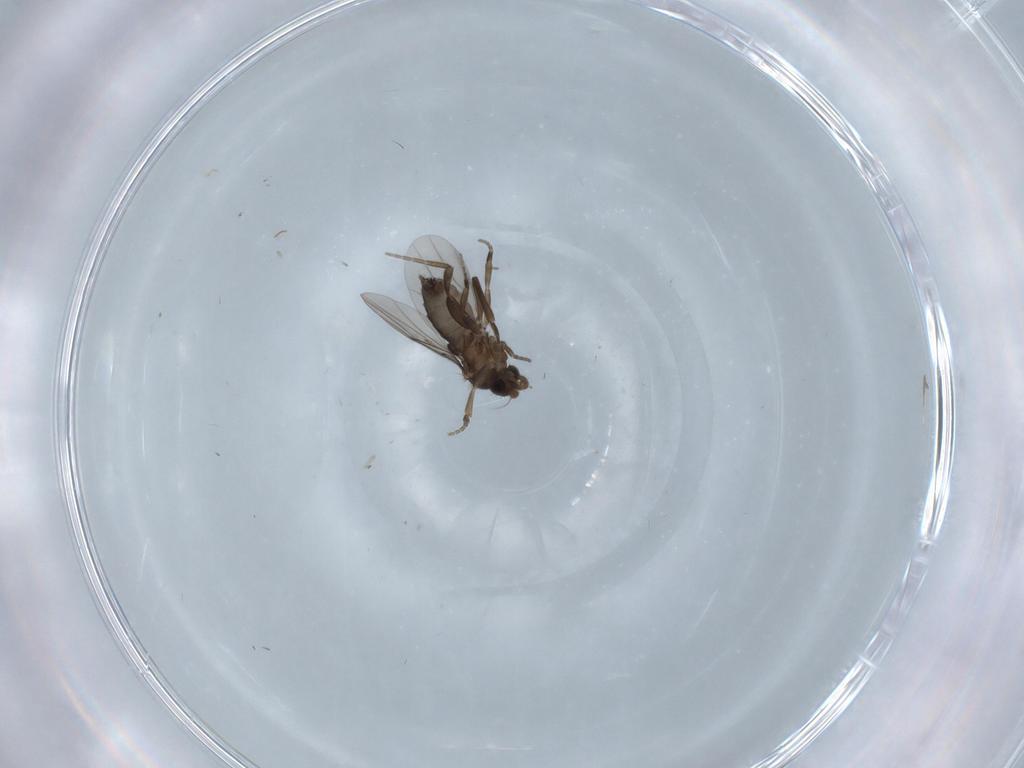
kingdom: Animalia
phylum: Arthropoda
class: Insecta
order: Diptera
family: Phoridae
